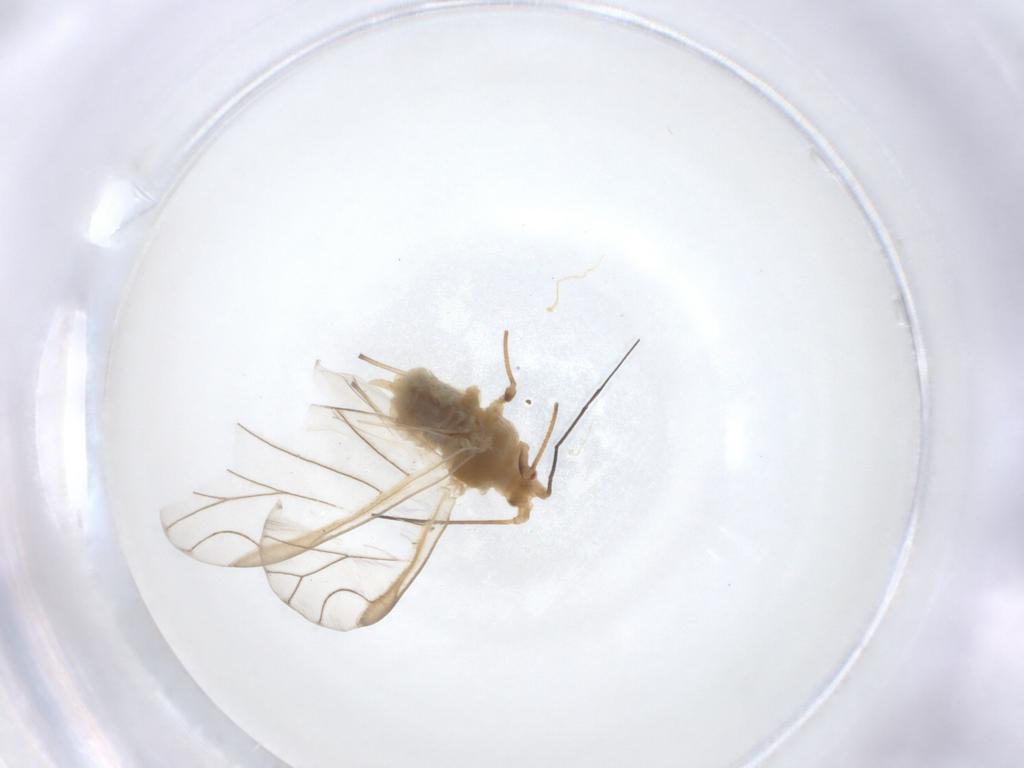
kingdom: Animalia
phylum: Arthropoda
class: Insecta
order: Hemiptera
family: Aphididae
